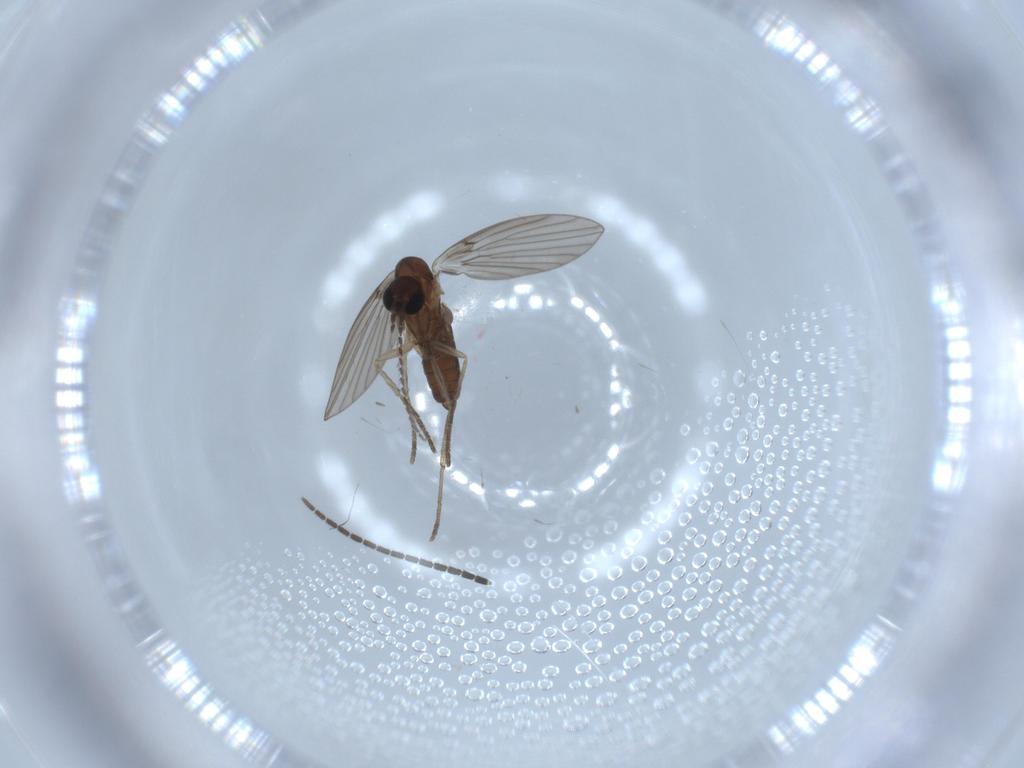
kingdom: Animalia
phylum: Arthropoda
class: Insecta
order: Diptera
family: Sciaridae
